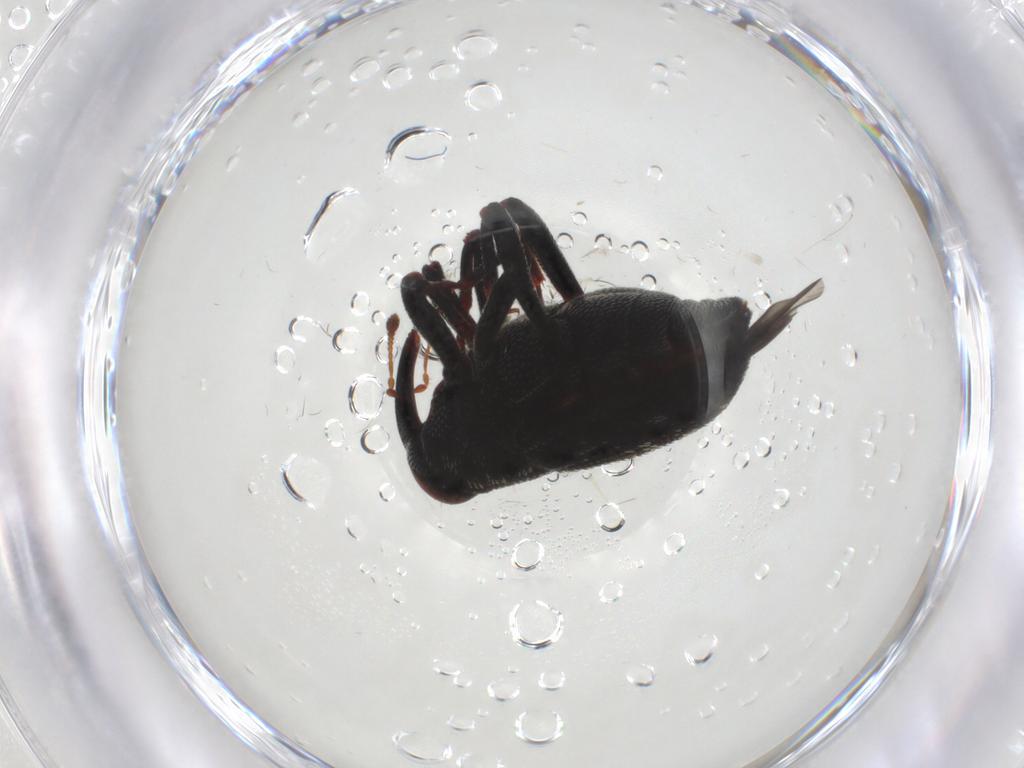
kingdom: Animalia
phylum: Arthropoda
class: Insecta
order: Coleoptera
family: Curculionidae
